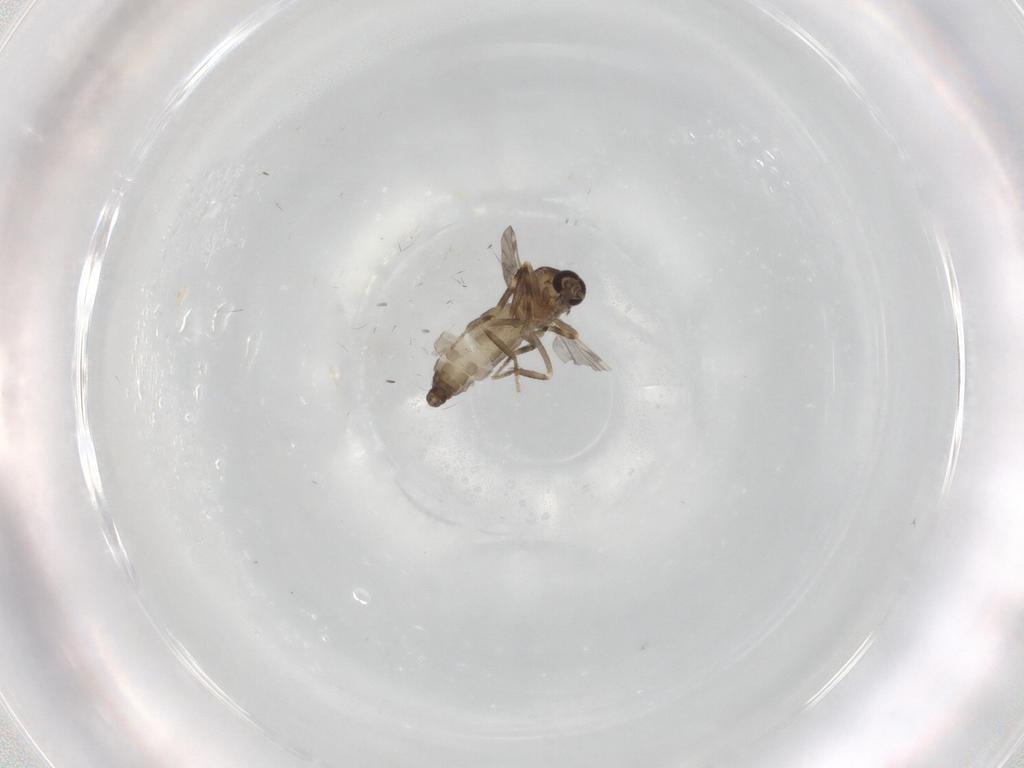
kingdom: Animalia
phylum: Arthropoda
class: Insecta
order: Diptera
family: Ceratopogonidae
